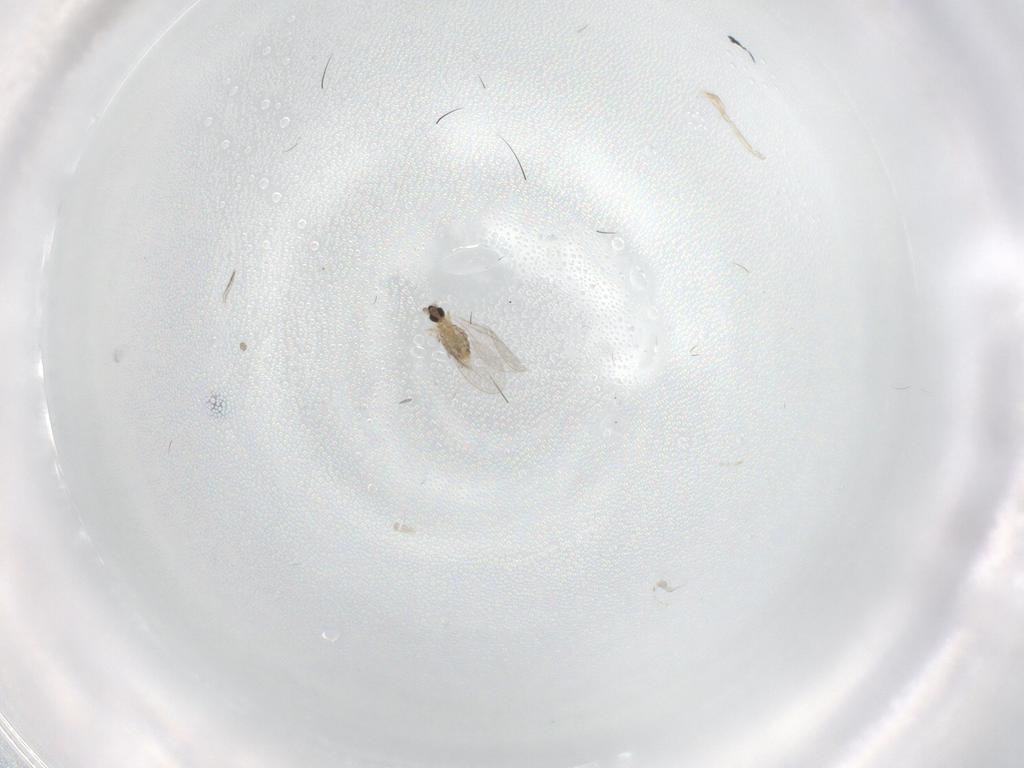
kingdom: Animalia
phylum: Arthropoda
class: Insecta
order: Diptera
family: Cecidomyiidae
